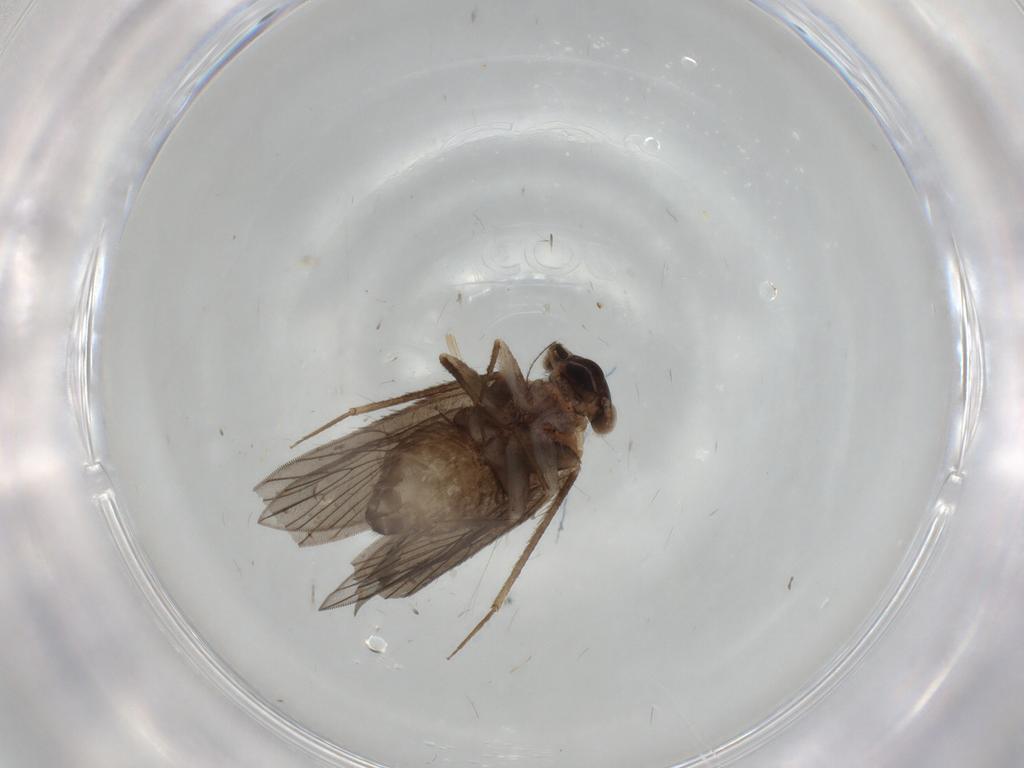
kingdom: Animalia
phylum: Arthropoda
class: Insecta
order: Psocodea
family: Lepidopsocidae
